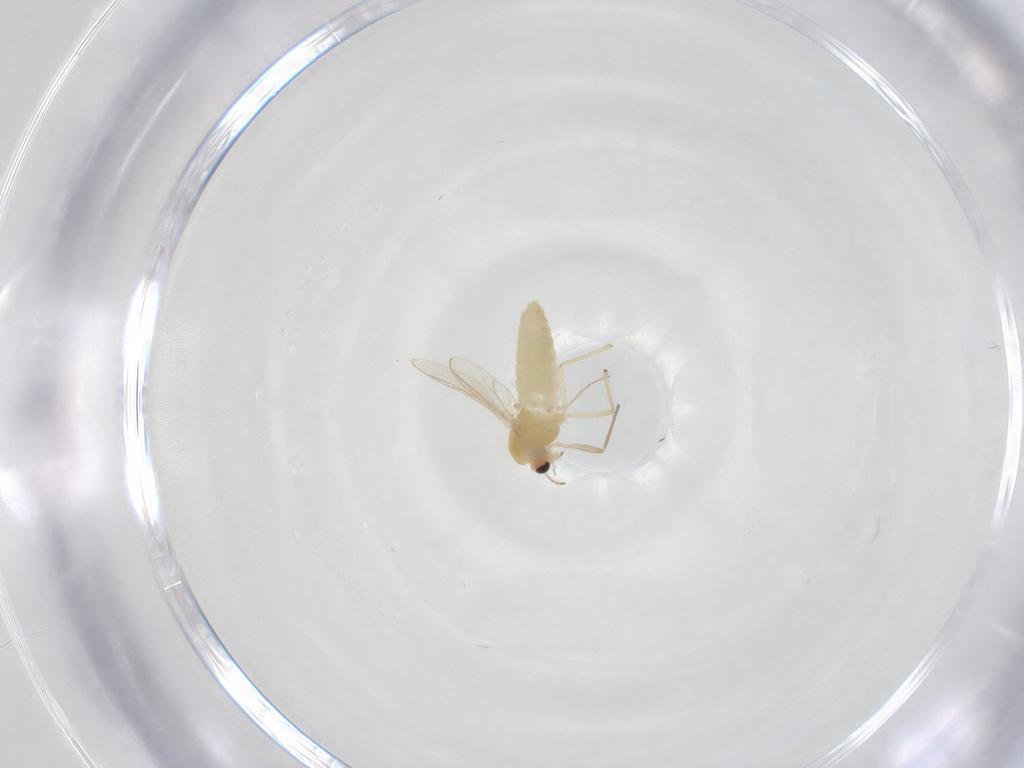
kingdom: Animalia
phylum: Arthropoda
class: Insecta
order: Diptera
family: Chironomidae
